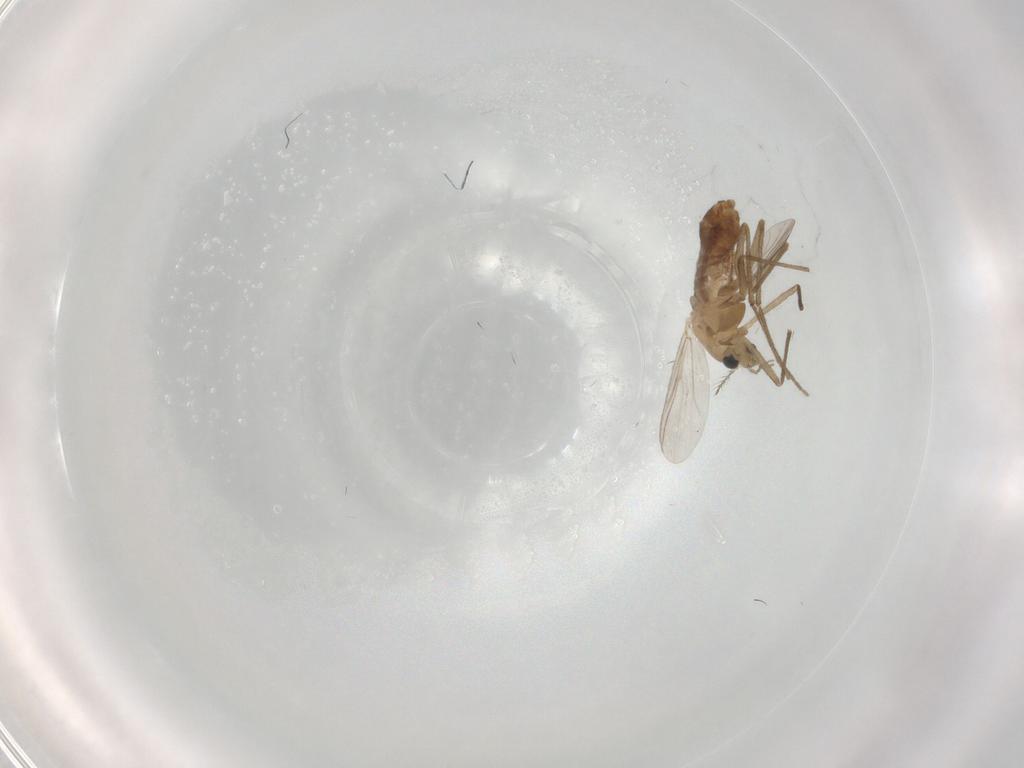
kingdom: Animalia
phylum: Arthropoda
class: Insecta
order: Diptera
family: Chironomidae
